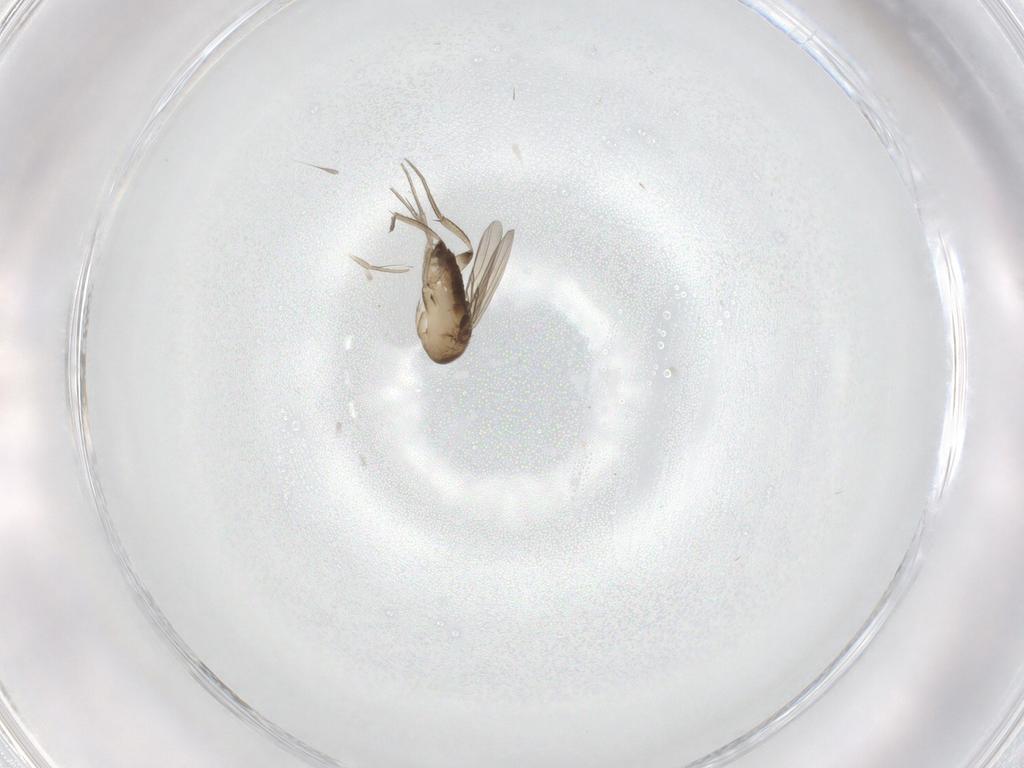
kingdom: Animalia
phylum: Arthropoda
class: Insecta
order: Diptera
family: Phoridae
